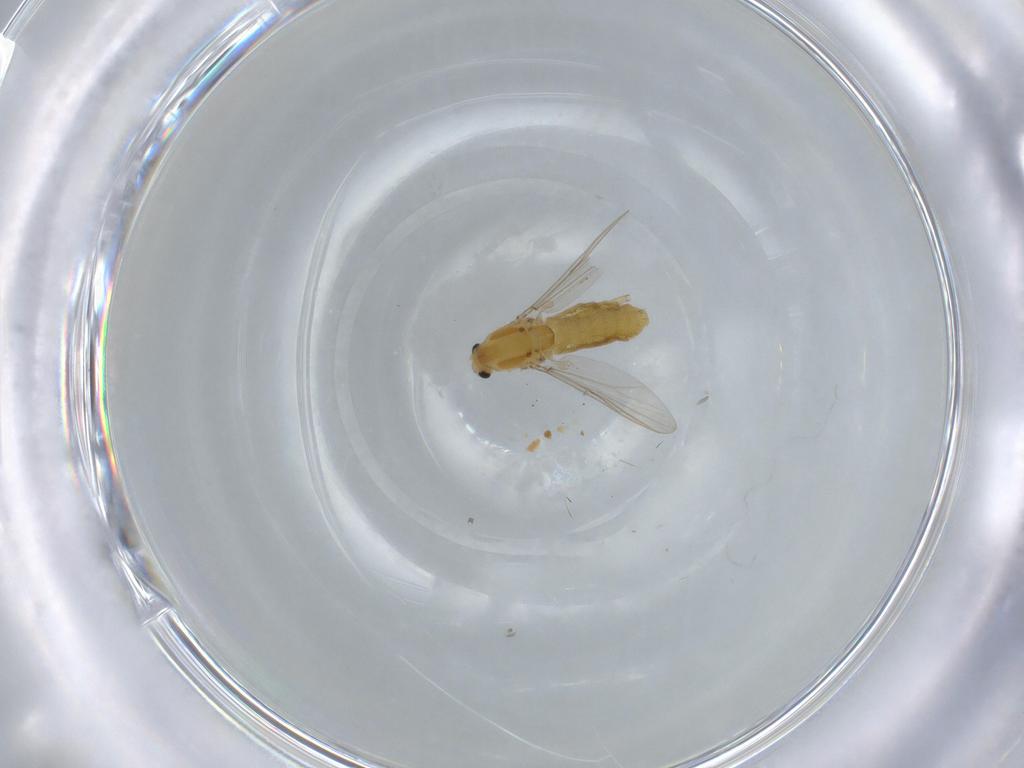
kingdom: Animalia
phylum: Arthropoda
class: Insecta
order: Diptera
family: Chironomidae
